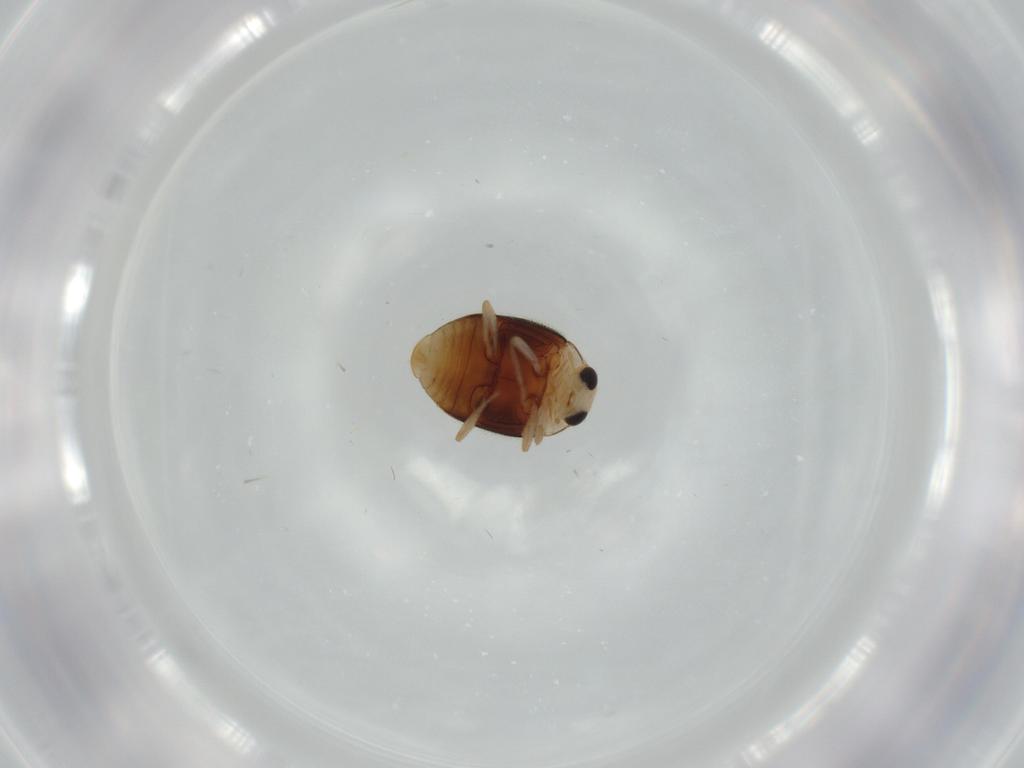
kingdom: Animalia
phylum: Arthropoda
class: Insecta
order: Coleoptera
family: Coccinellidae
